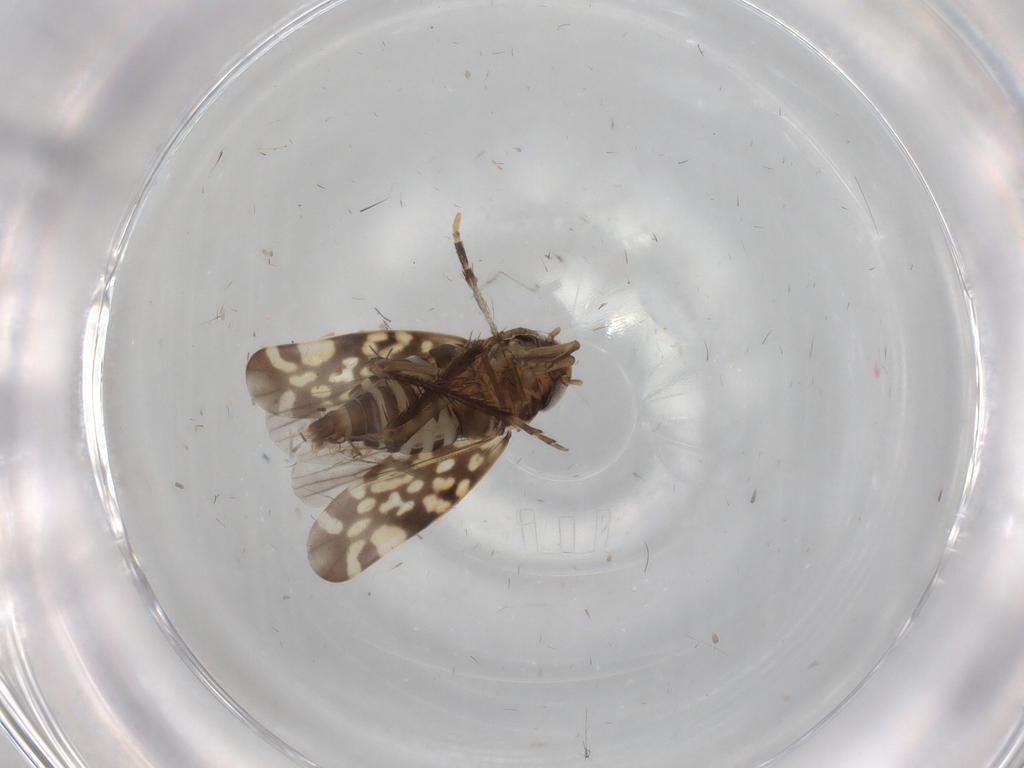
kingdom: Animalia
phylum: Arthropoda
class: Insecta
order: Hemiptera
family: Cicadellidae
